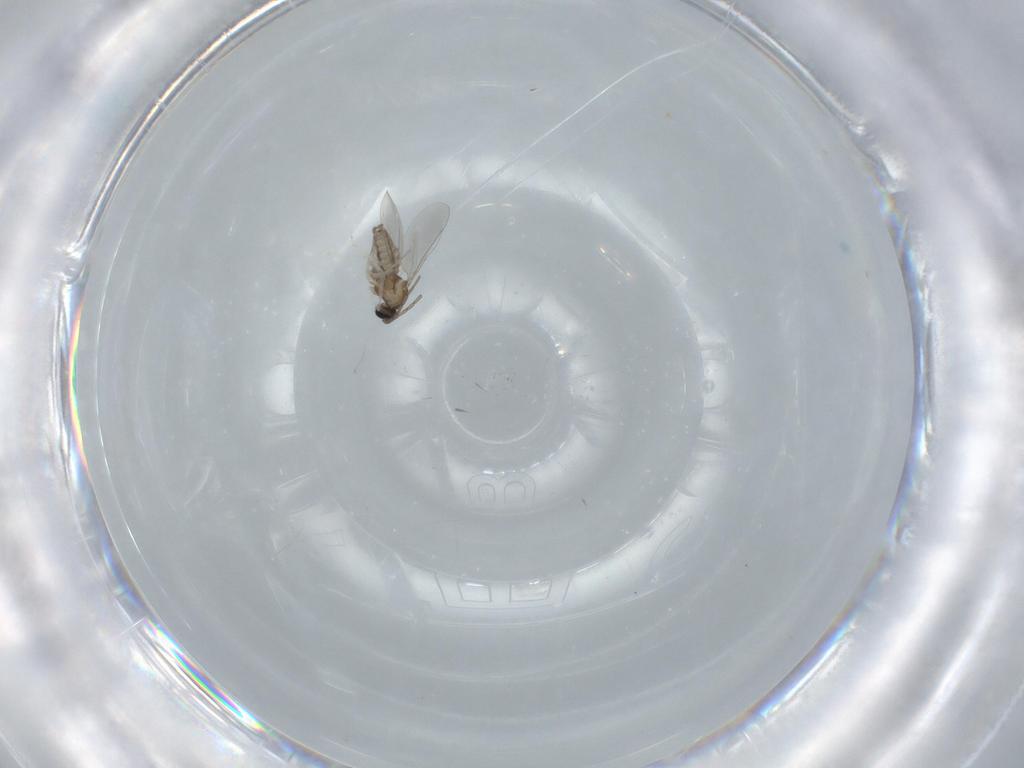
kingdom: Animalia
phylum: Arthropoda
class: Insecta
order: Diptera
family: Cecidomyiidae
